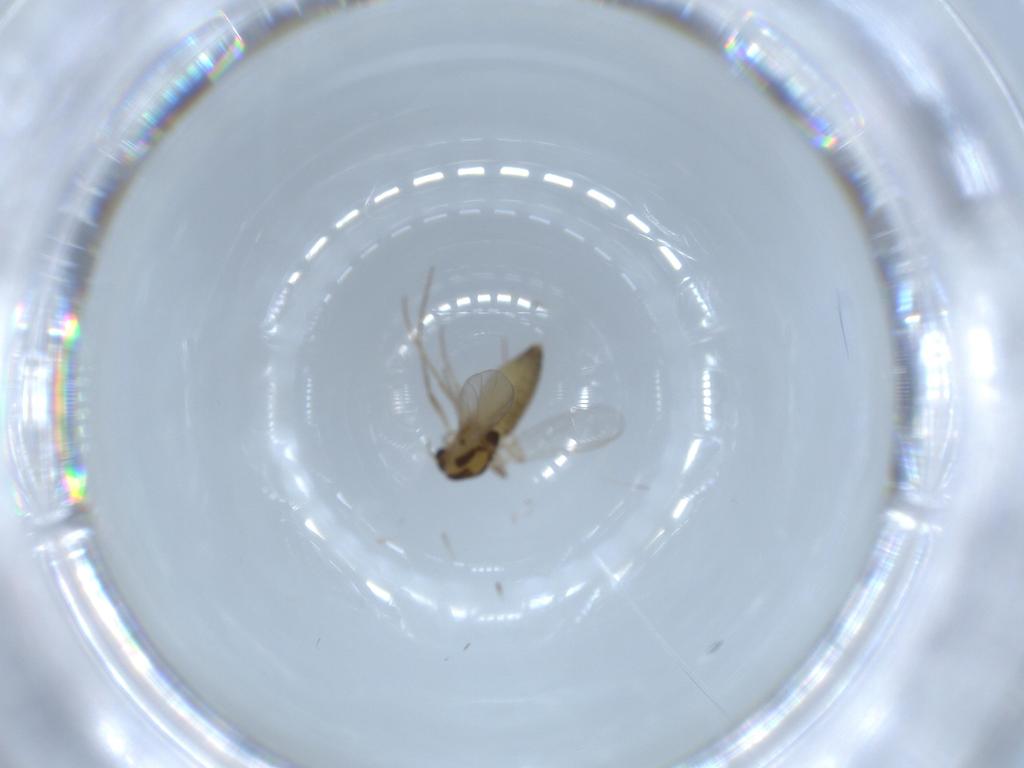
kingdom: Animalia
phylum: Arthropoda
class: Insecta
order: Diptera
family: Chironomidae
